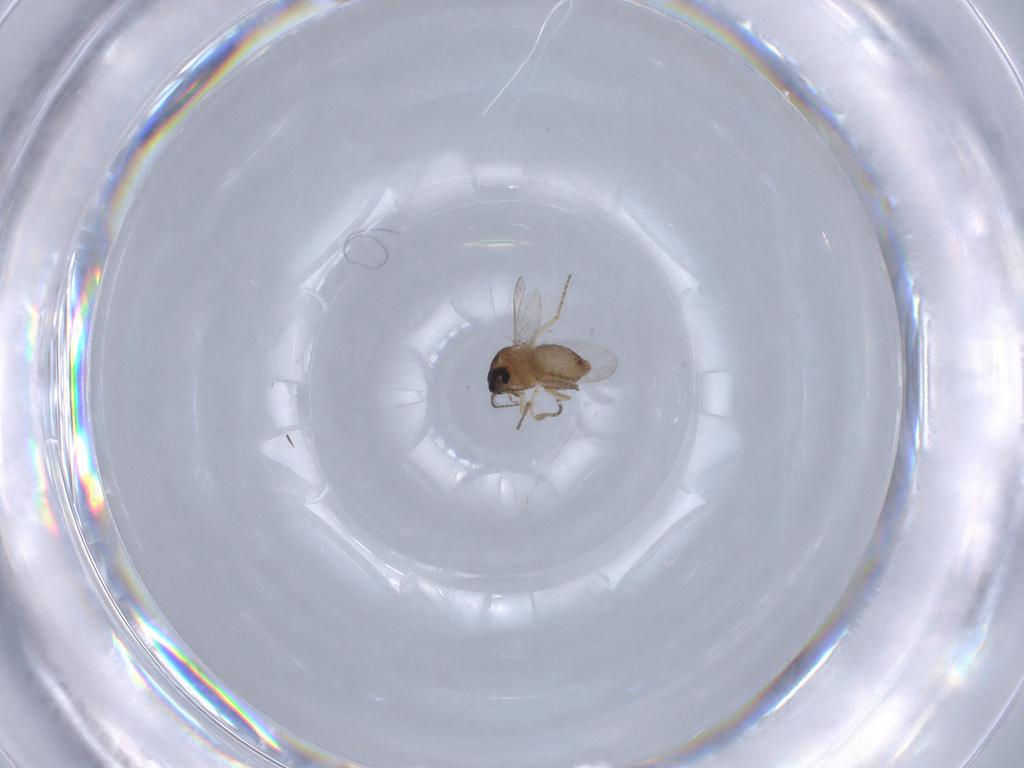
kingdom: Animalia
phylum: Arthropoda
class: Insecta
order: Diptera
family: Ceratopogonidae
